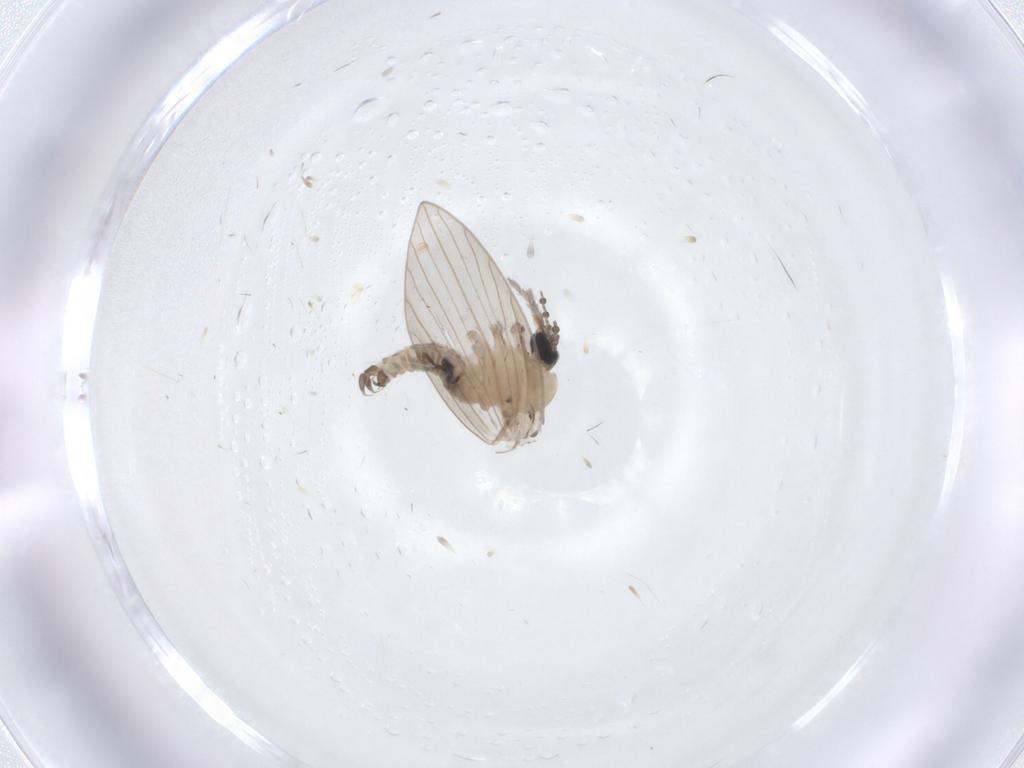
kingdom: Animalia
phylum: Arthropoda
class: Insecta
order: Diptera
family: Psychodidae
